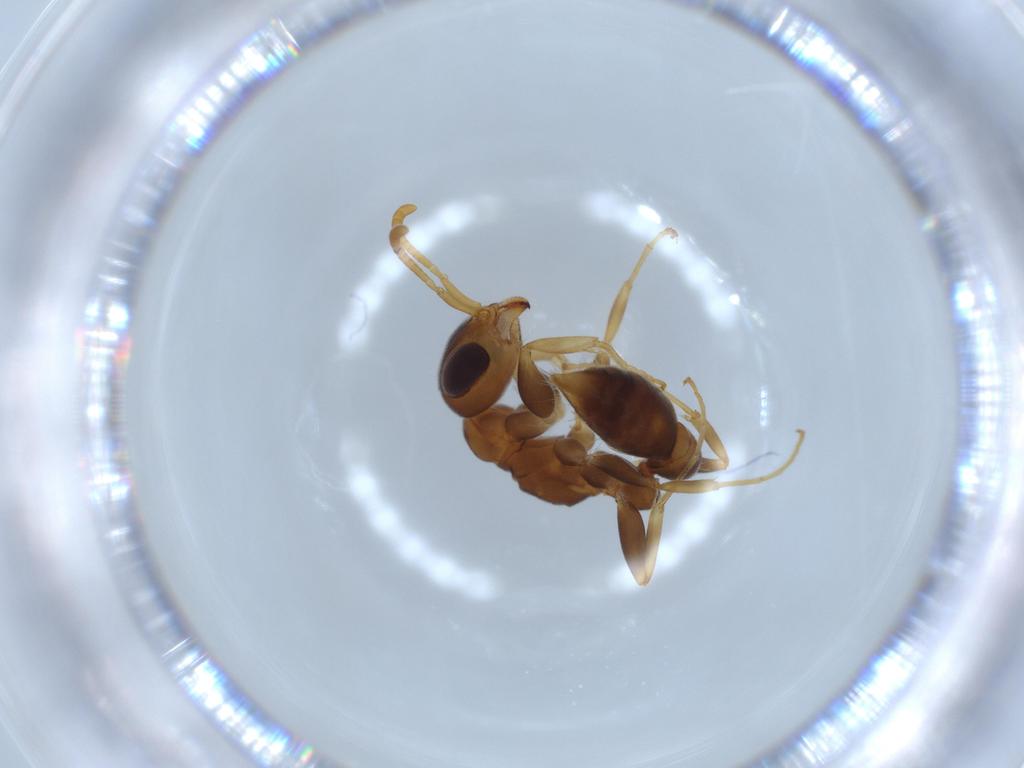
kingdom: Animalia
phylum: Arthropoda
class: Insecta
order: Hymenoptera
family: Formicidae
